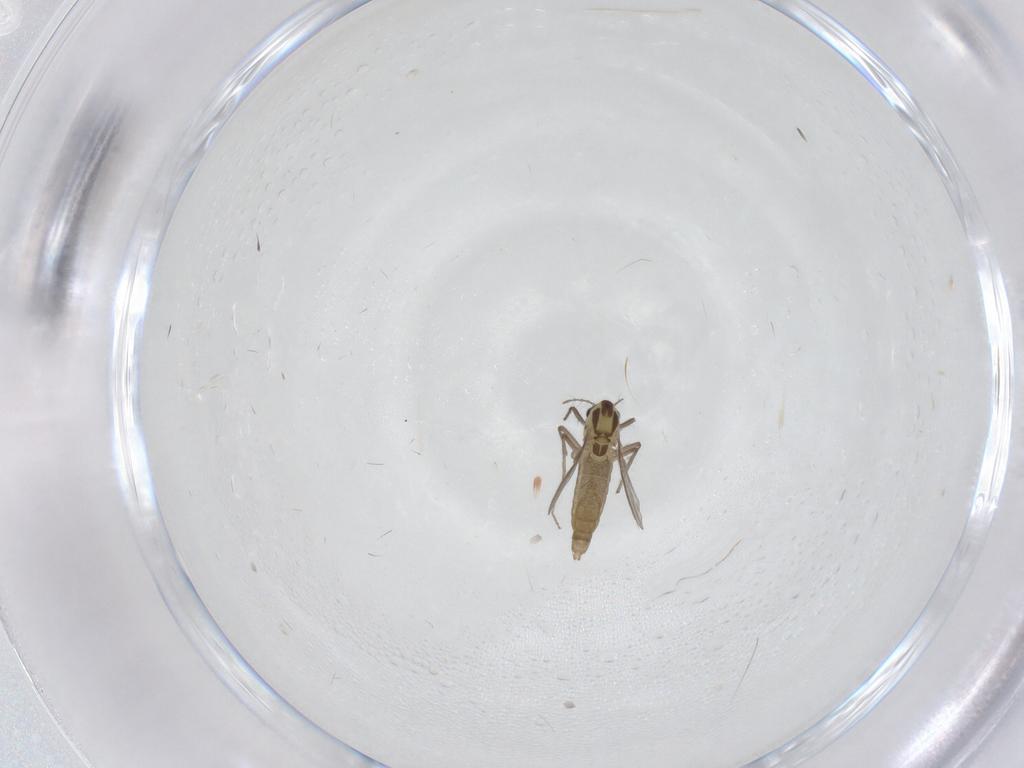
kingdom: Animalia
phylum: Arthropoda
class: Insecta
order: Diptera
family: Chironomidae
